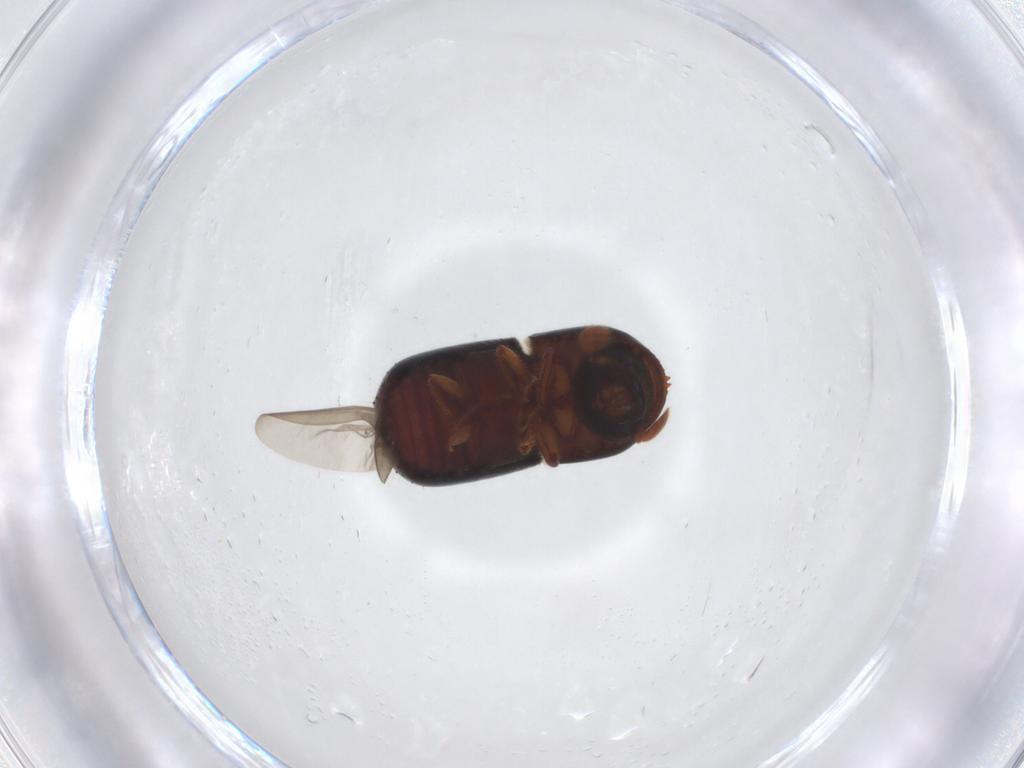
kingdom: Animalia
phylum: Arthropoda
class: Insecta
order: Coleoptera
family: Curculionidae
